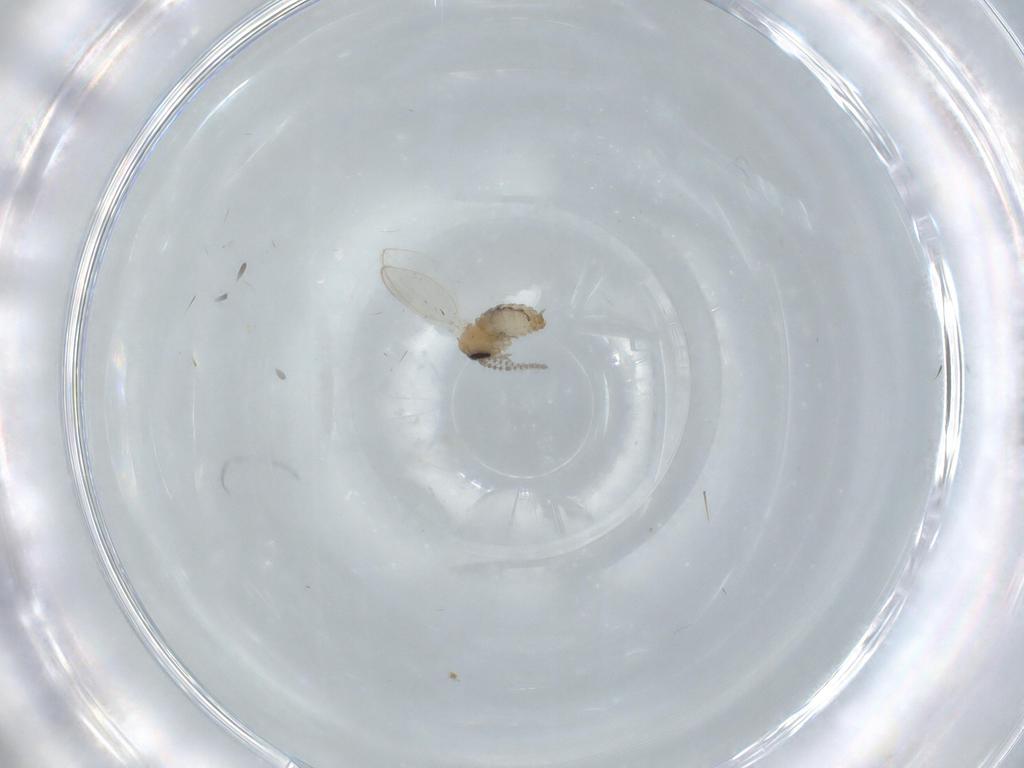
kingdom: Animalia
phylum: Arthropoda
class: Insecta
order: Diptera
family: Psychodidae
